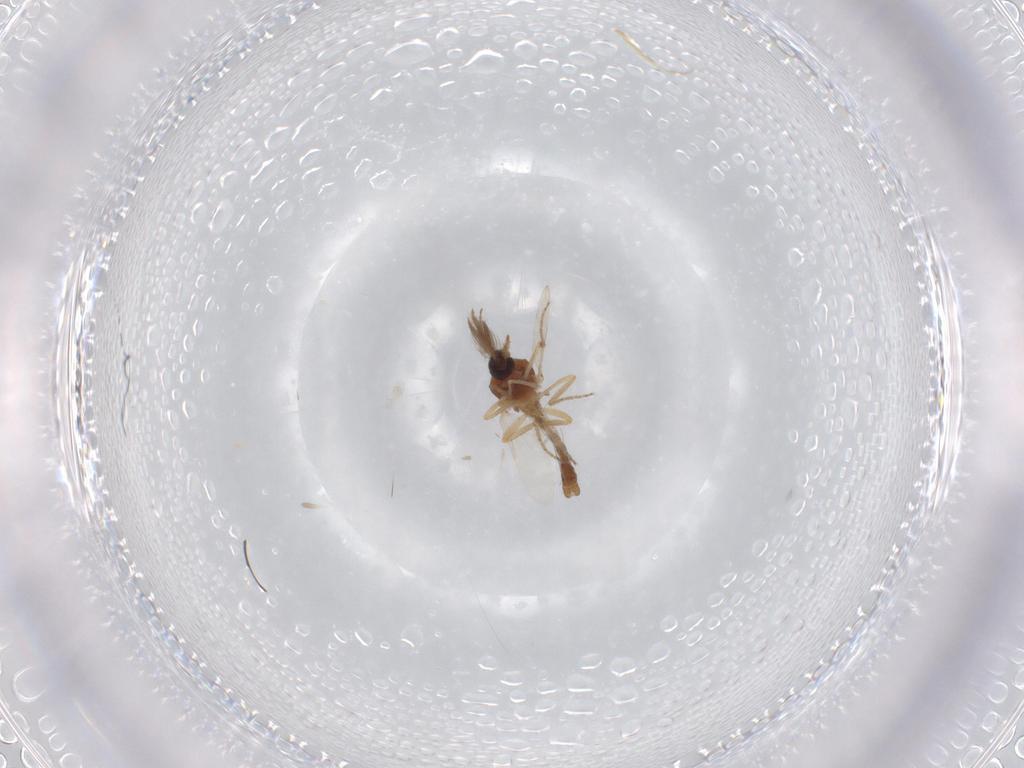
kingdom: Animalia
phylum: Arthropoda
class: Insecta
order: Diptera
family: Ceratopogonidae
